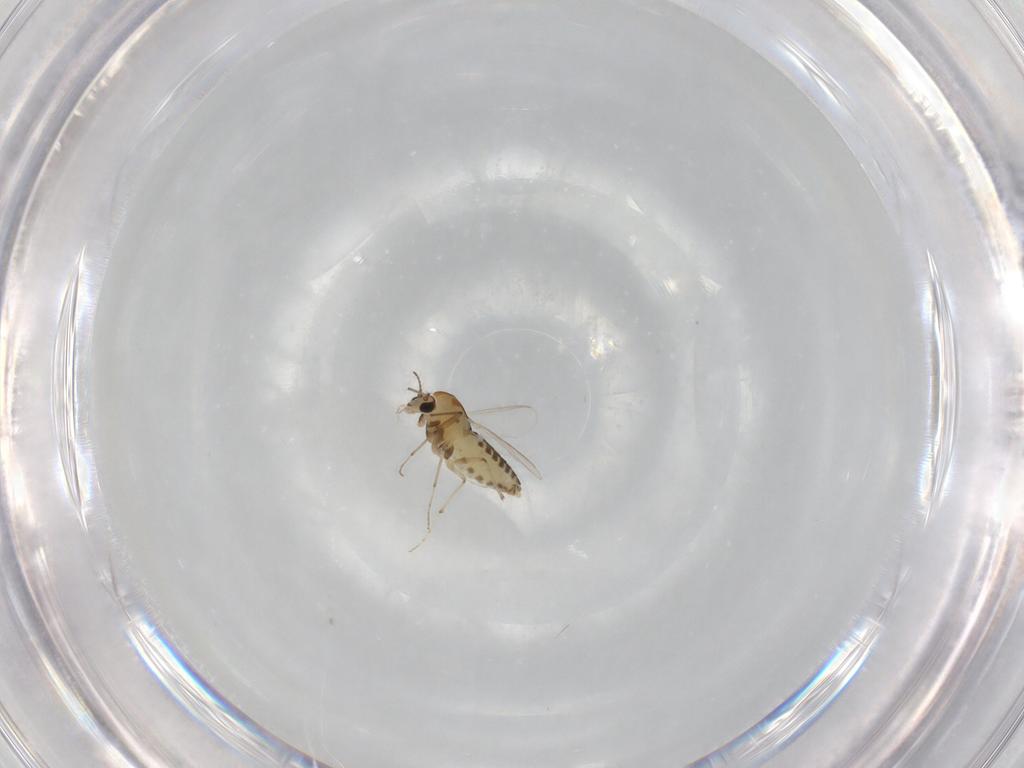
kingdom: Animalia
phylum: Arthropoda
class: Insecta
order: Diptera
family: Chironomidae
